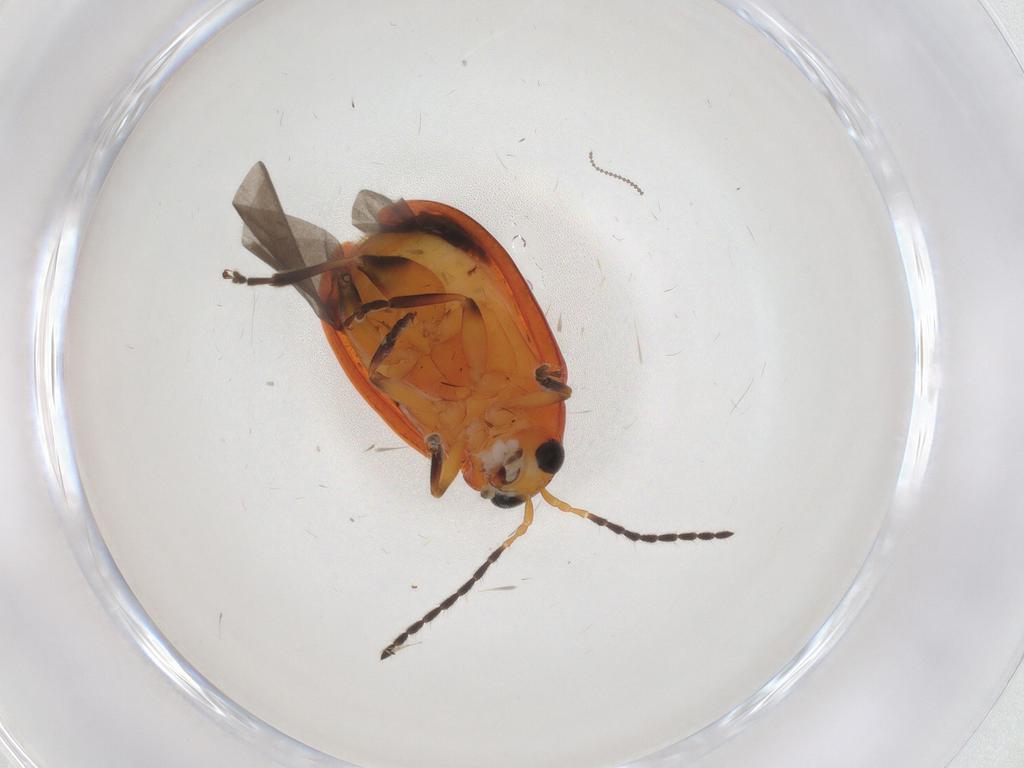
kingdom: Animalia
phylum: Arthropoda
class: Insecta
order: Coleoptera
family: Chrysomelidae
